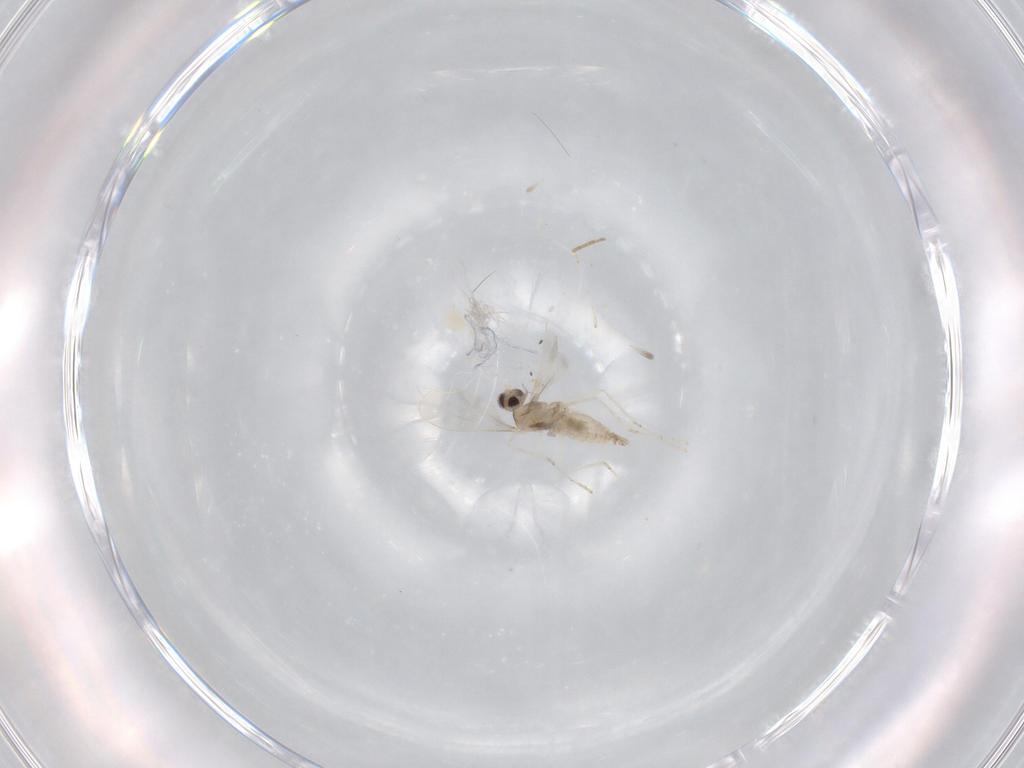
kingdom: Animalia
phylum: Arthropoda
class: Insecta
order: Diptera
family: Cecidomyiidae
